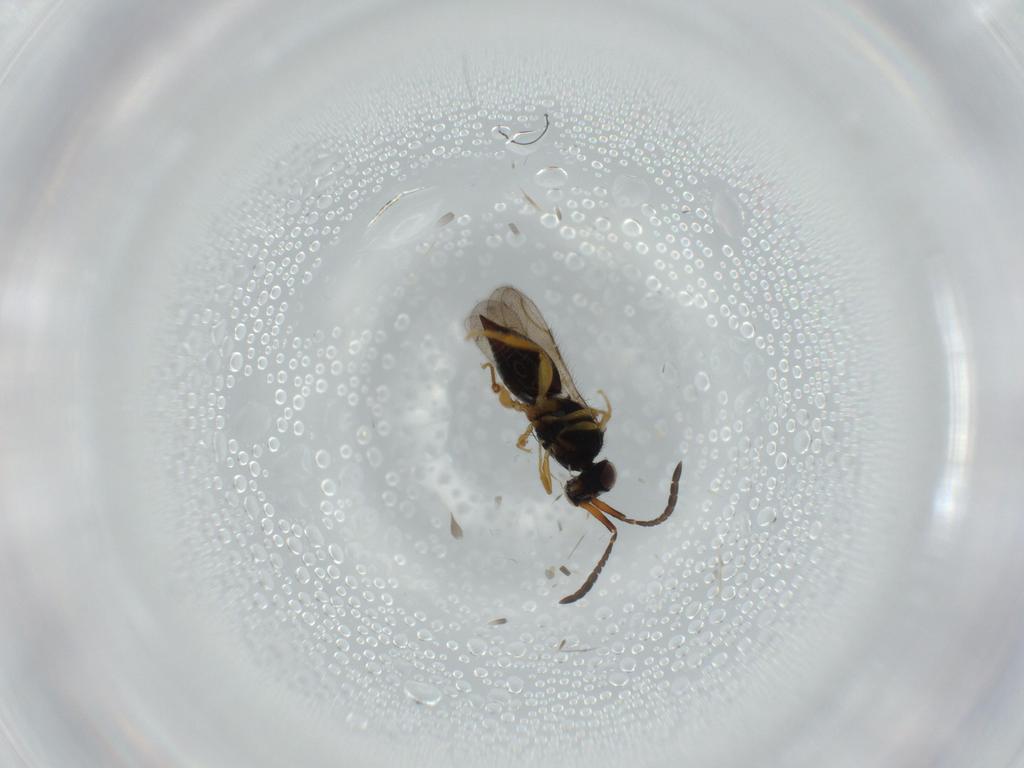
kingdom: Animalia
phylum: Arthropoda
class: Insecta
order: Hymenoptera
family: Ceraphronidae
